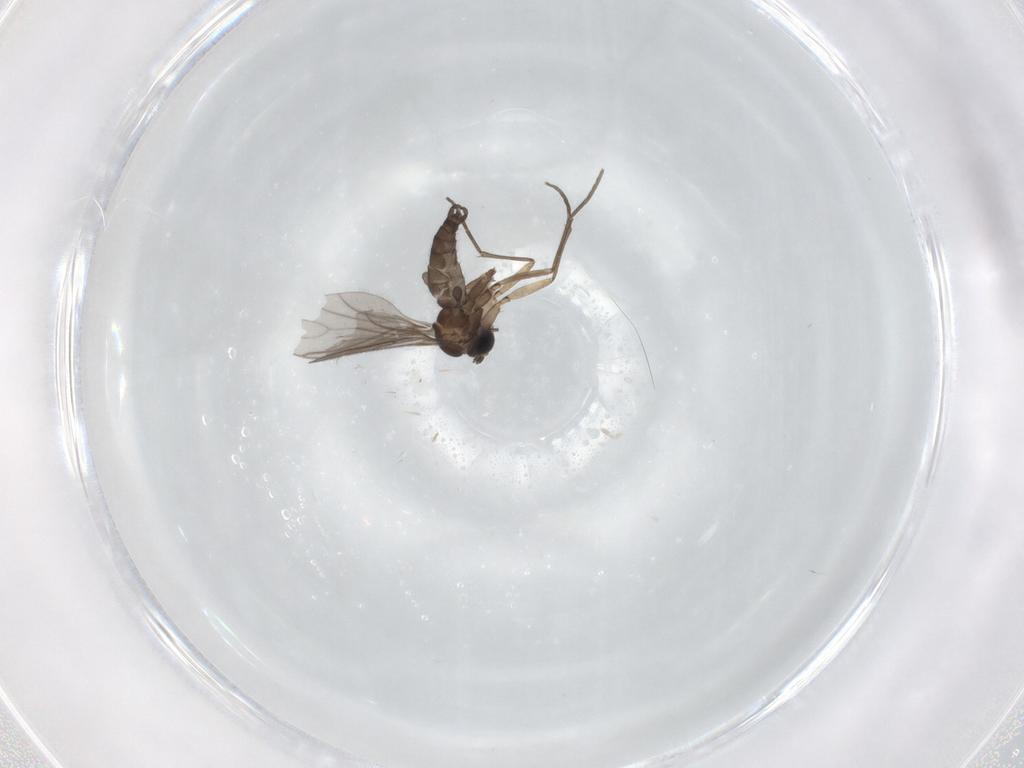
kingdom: Animalia
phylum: Arthropoda
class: Insecta
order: Diptera
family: Sciaridae
